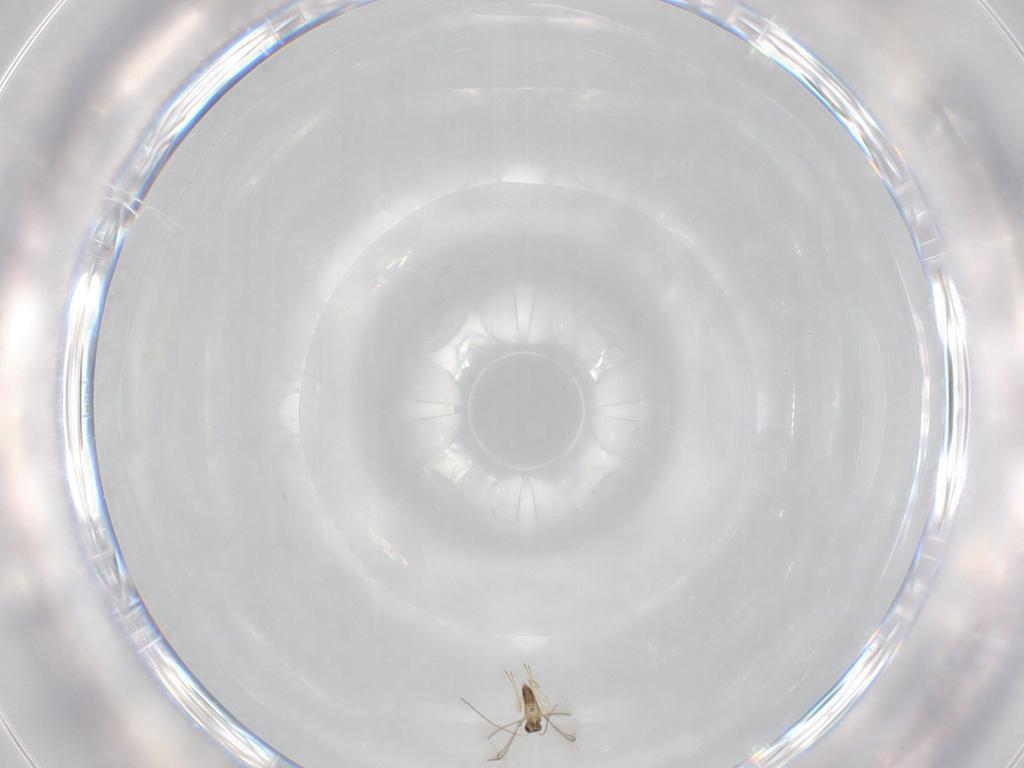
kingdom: Animalia
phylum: Arthropoda
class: Insecta
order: Hymenoptera
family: Mymaridae
